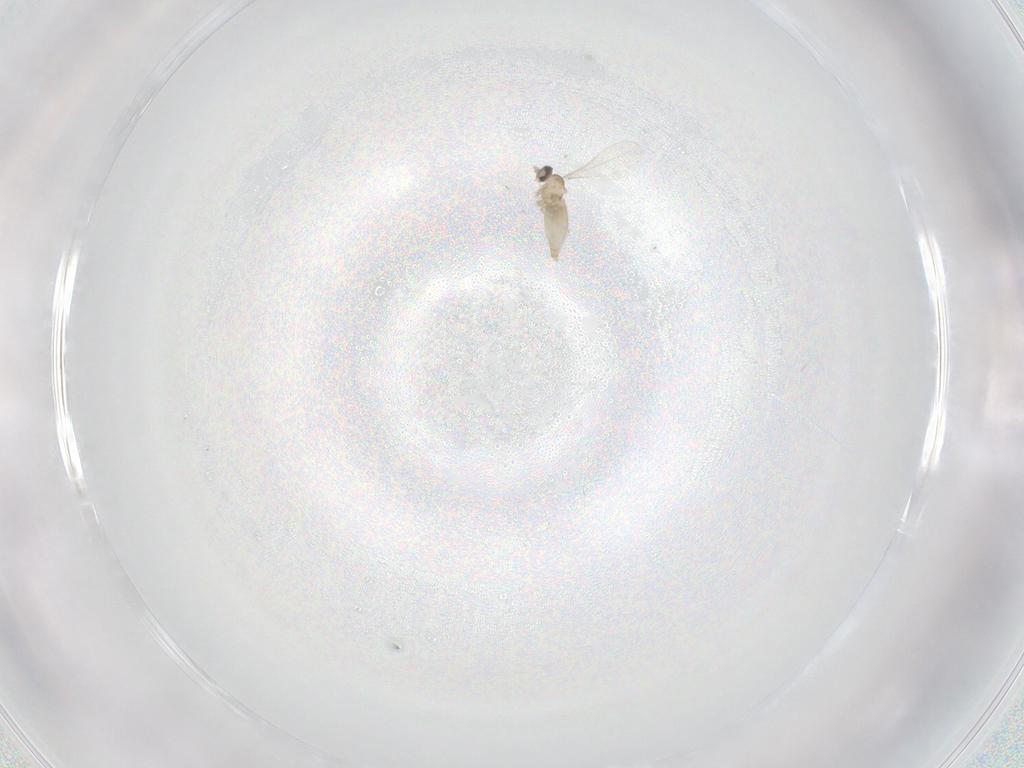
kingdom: Animalia
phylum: Arthropoda
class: Insecta
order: Diptera
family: Cecidomyiidae
